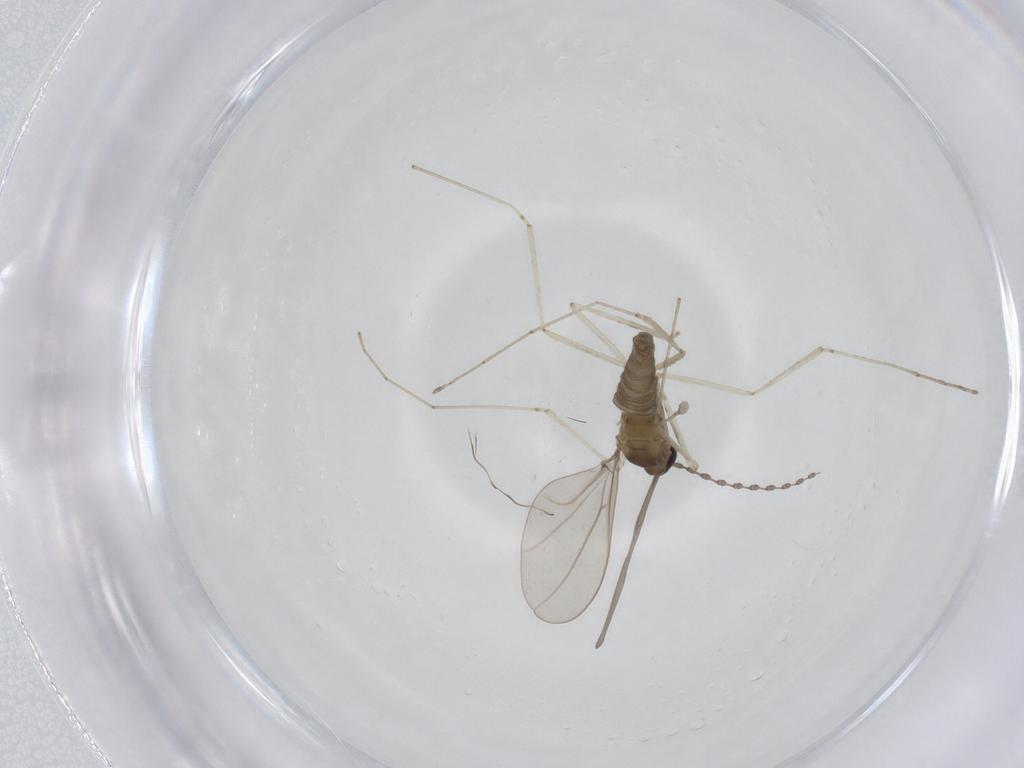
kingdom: Animalia
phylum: Arthropoda
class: Insecta
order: Diptera
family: Cecidomyiidae
